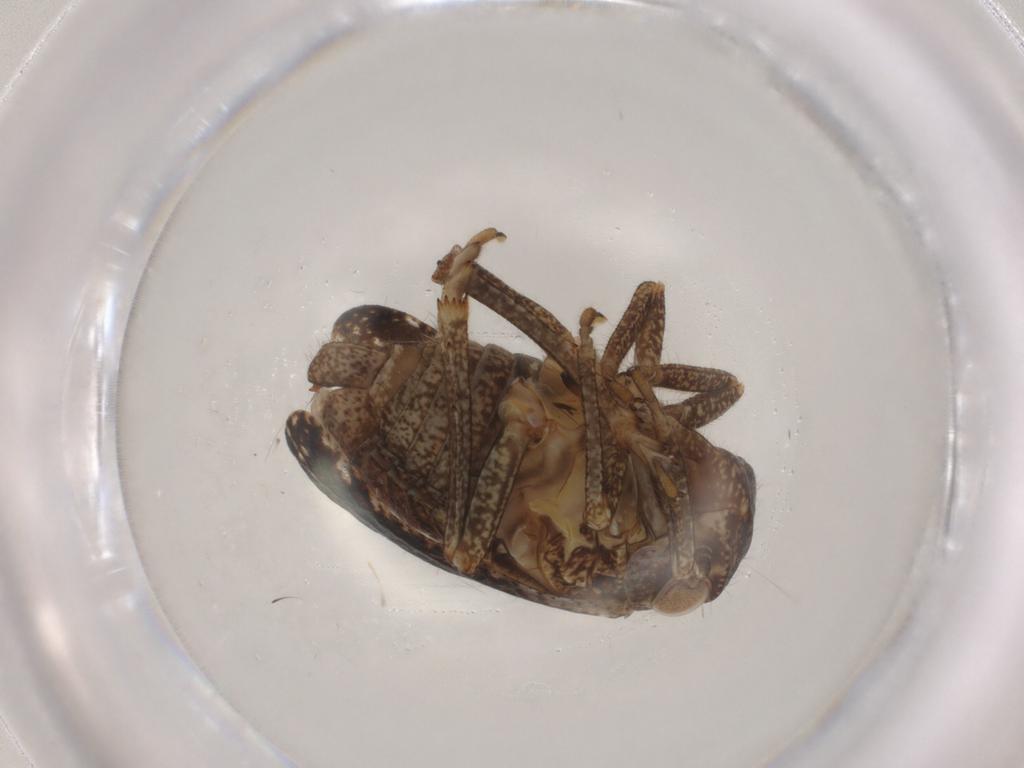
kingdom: Animalia
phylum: Arthropoda
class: Insecta
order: Hemiptera
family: Tropiduchidae
